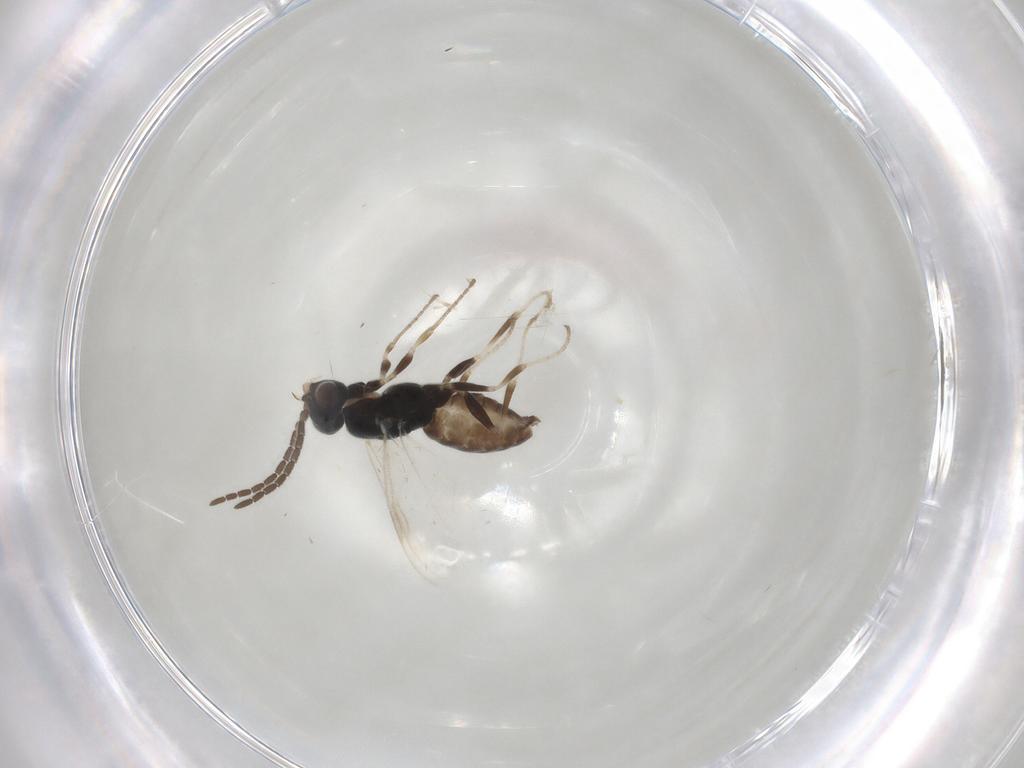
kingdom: Animalia
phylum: Arthropoda
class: Insecta
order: Hymenoptera
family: Dryinidae
